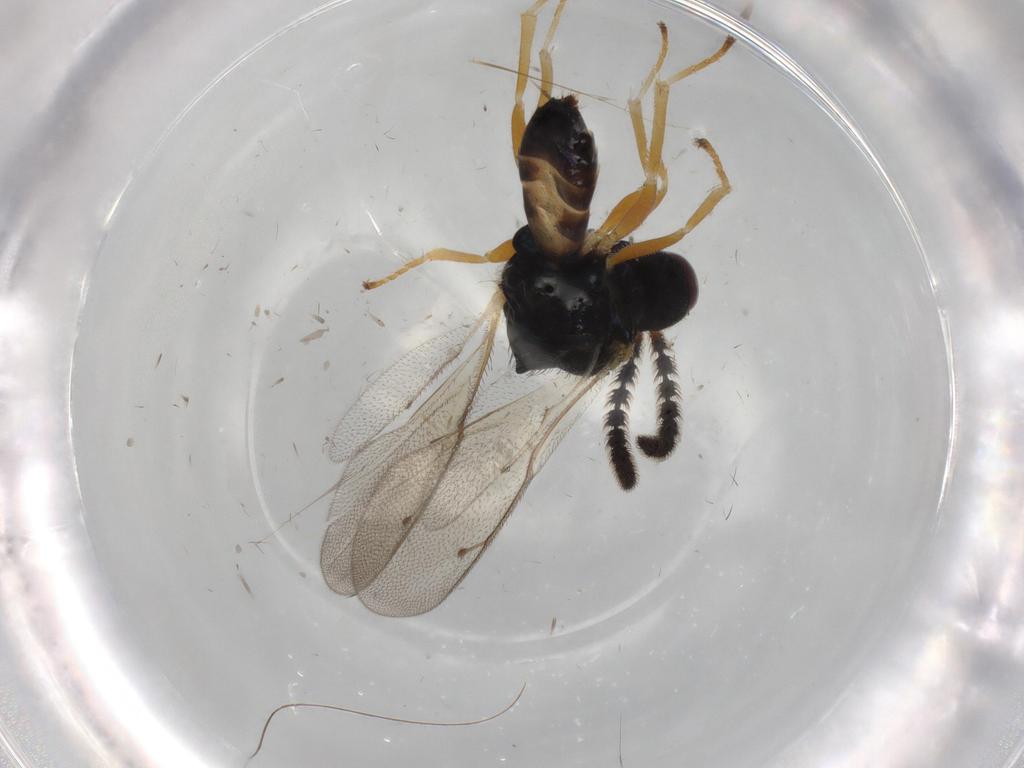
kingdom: Animalia
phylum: Arthropoda
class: Insecta
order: Hymenoptera
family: Pteromalidae
